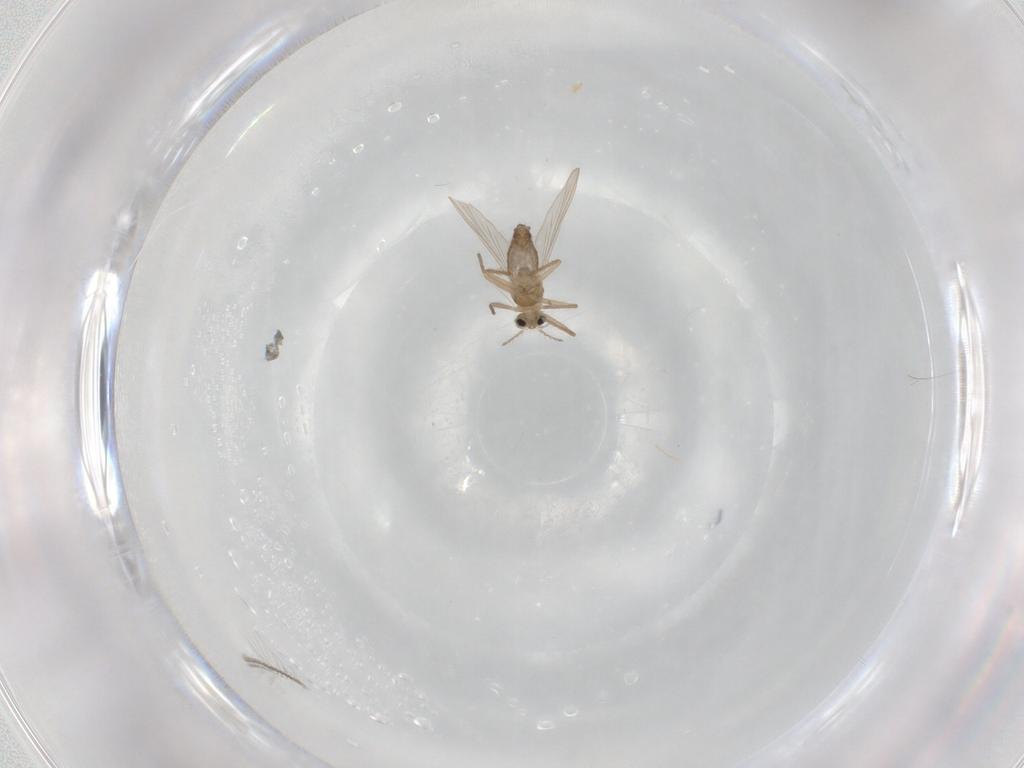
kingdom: Animalia
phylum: Arthropoda
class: Insecta
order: Diptera
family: Chironomidae
